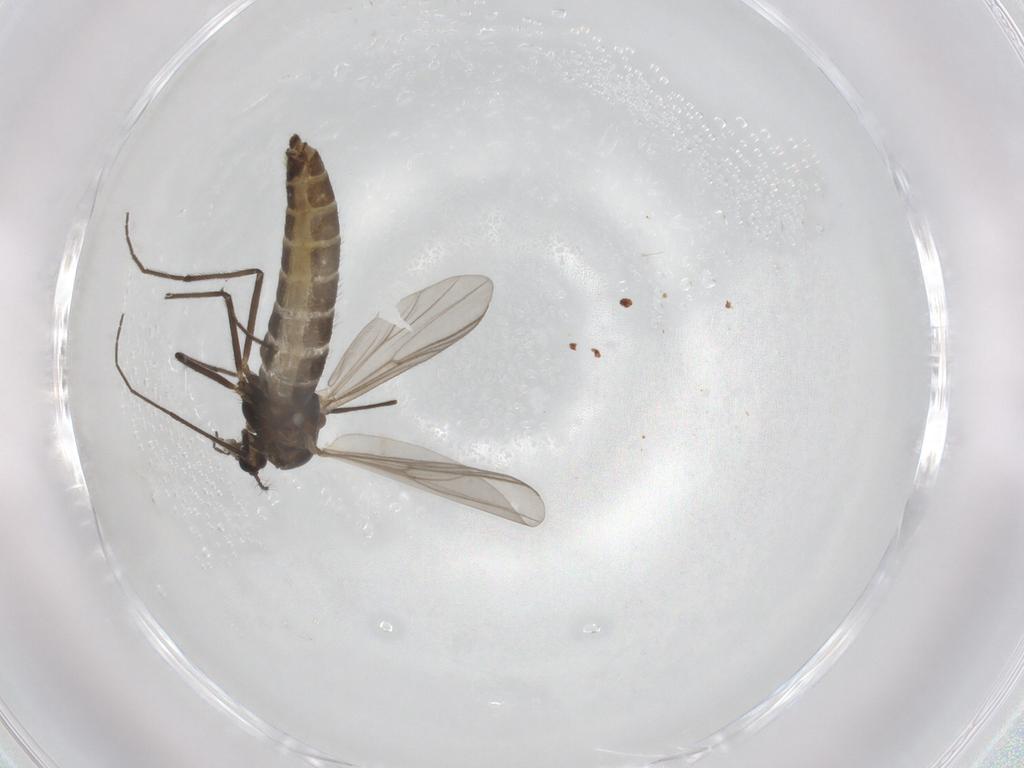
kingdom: Animalia
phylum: Arthropoda
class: Insecta
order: Diptera
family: Chironomidae
